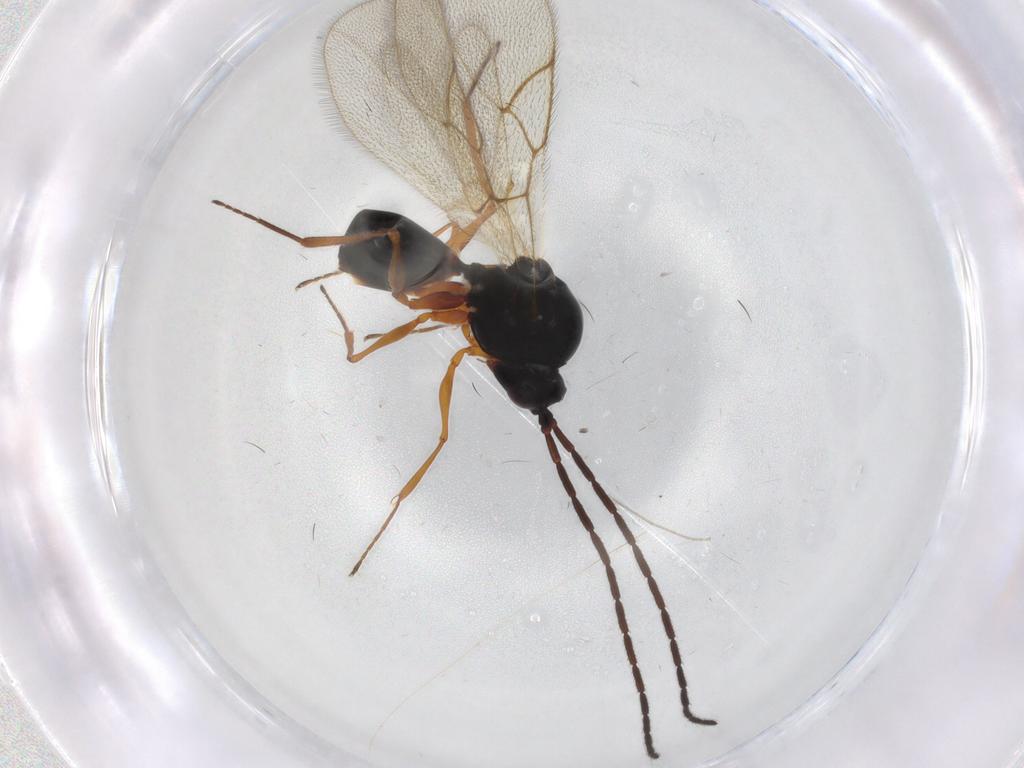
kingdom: Animalia
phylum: Arthropoda
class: Insecta
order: Hymenoptera
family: Figitidae
